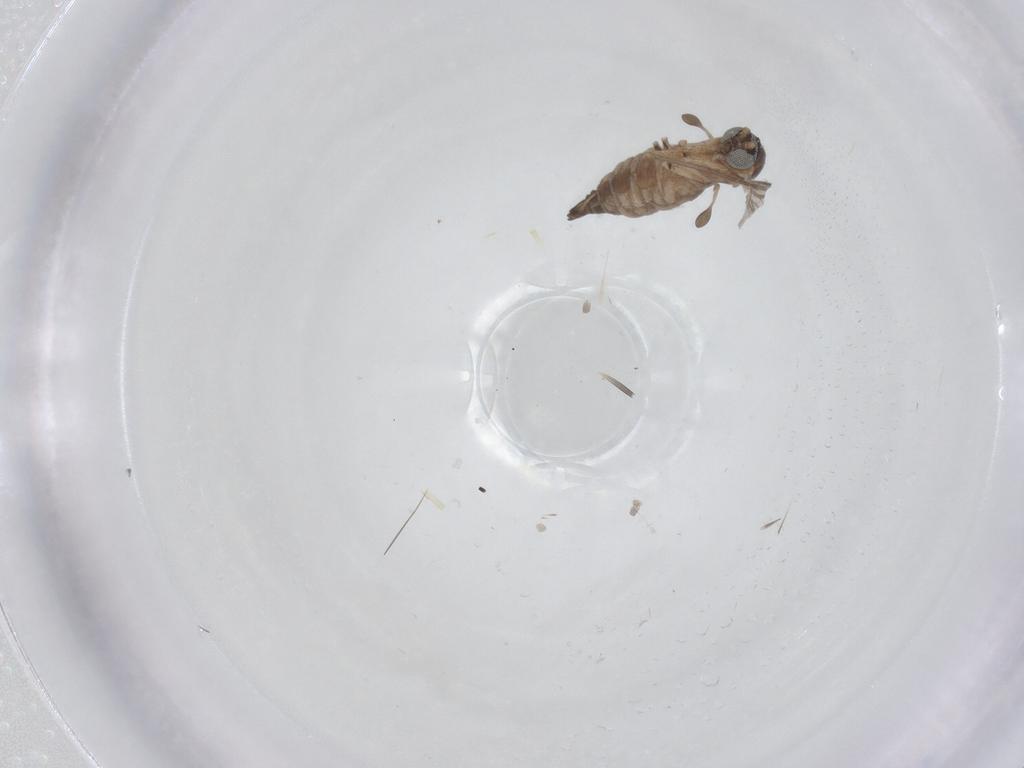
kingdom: Animalia
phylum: Arthropoda
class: Insecta
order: Diptera
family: Sciaridae
